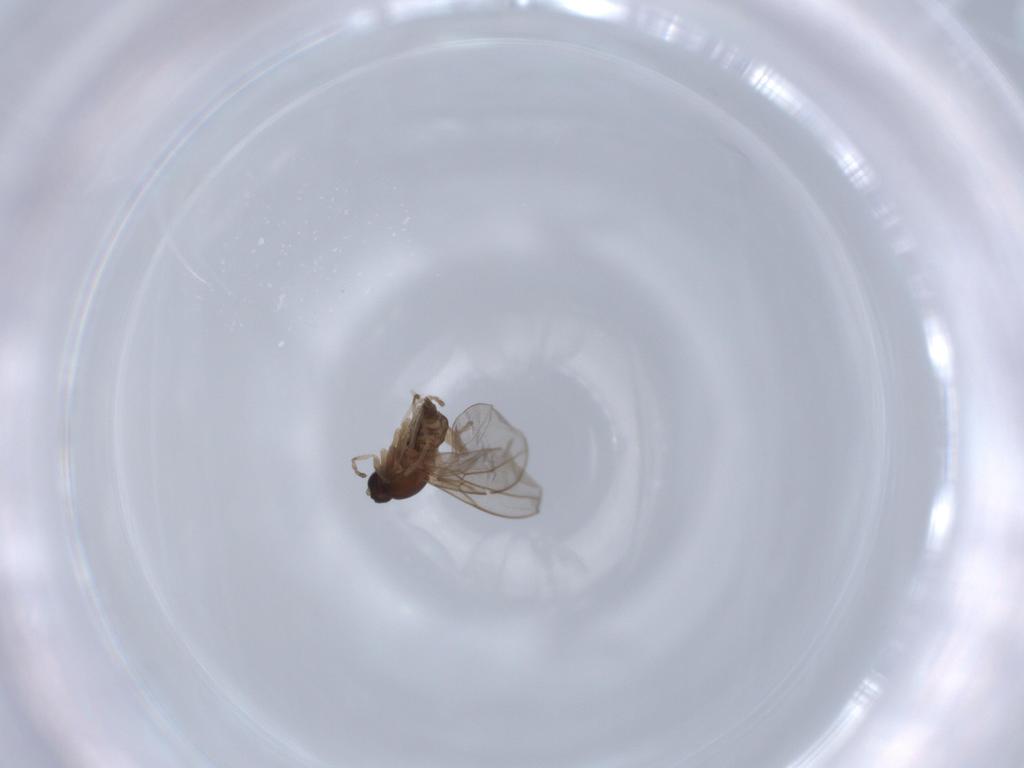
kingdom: Animalia
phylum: Arthropoda
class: Insecta
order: Diptera
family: Cecidomyiidae
